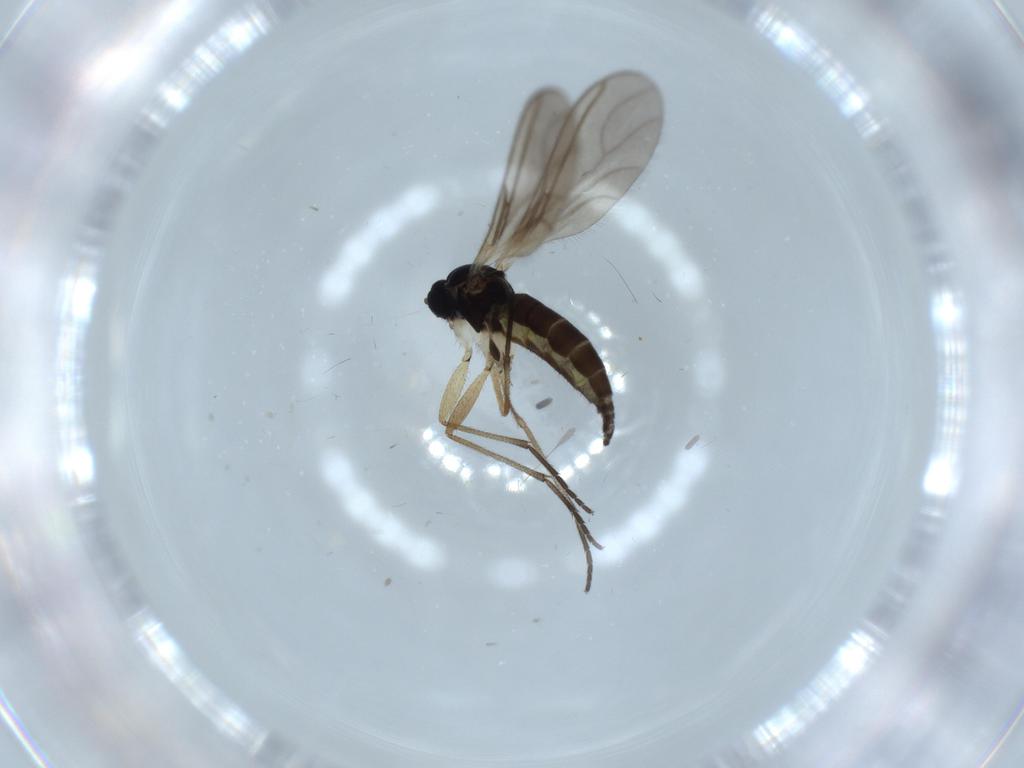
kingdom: Animalia
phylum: Arthropoda
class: Insecta
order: Diptera
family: Sciaridae
